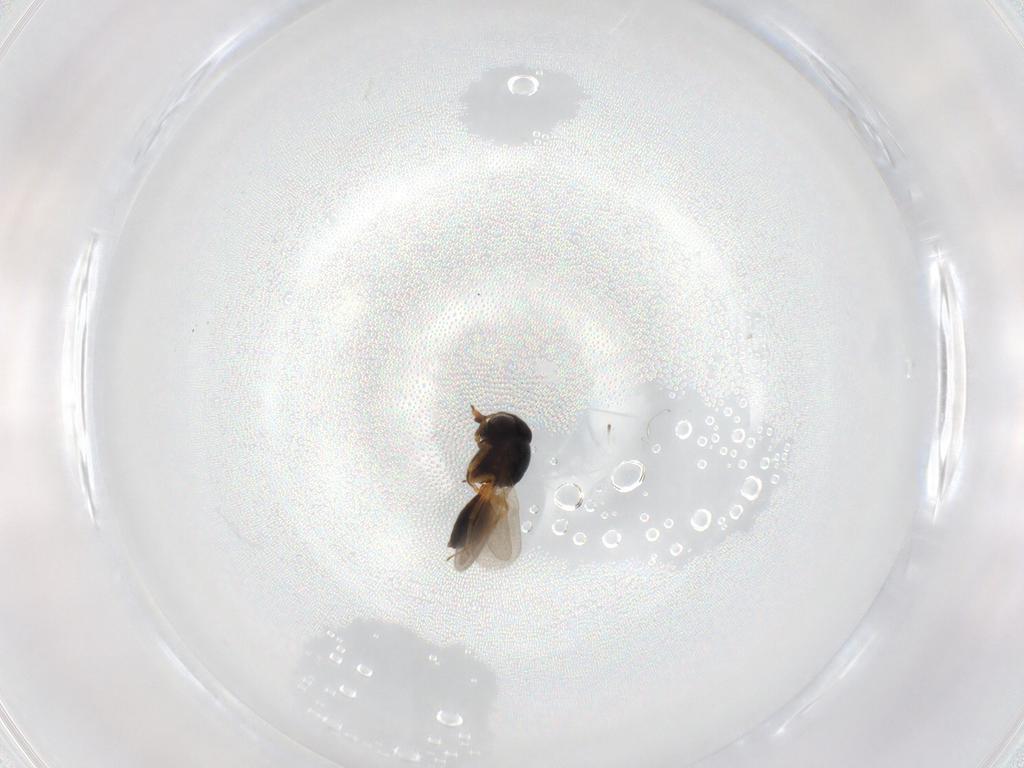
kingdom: Animalia
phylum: Arthropoda
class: Insecta
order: Hymenoptera
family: Scelionidae
